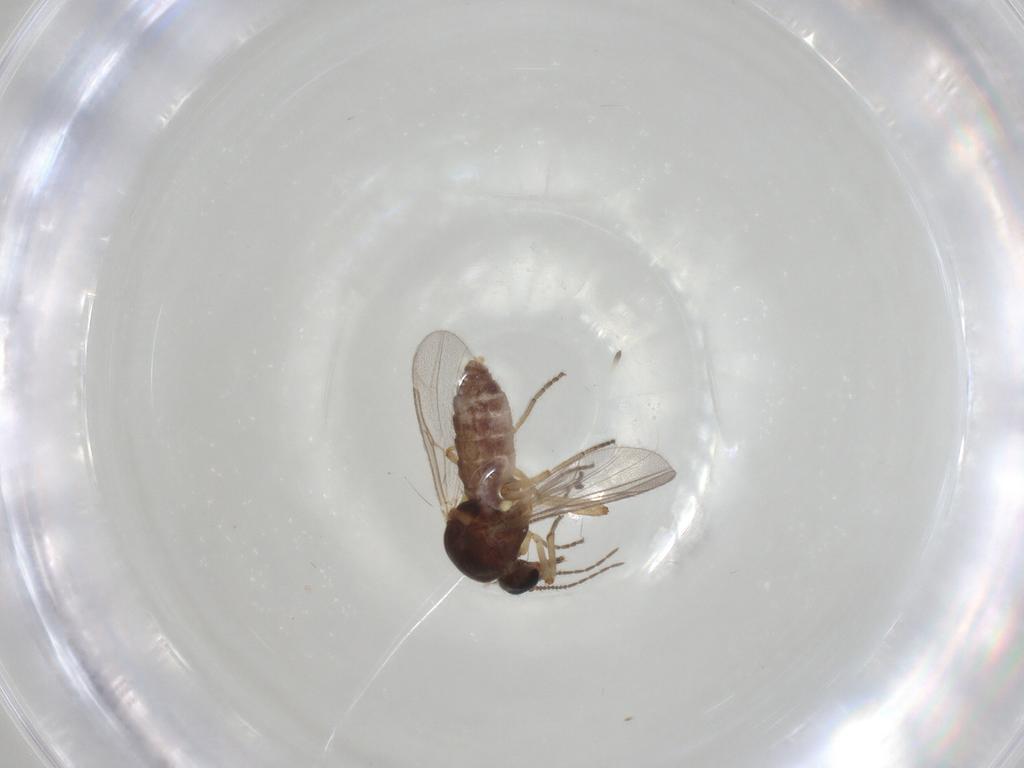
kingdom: Animalia
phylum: Arthropoda
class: Insecta
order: Diptera
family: Ceratopogonidae
